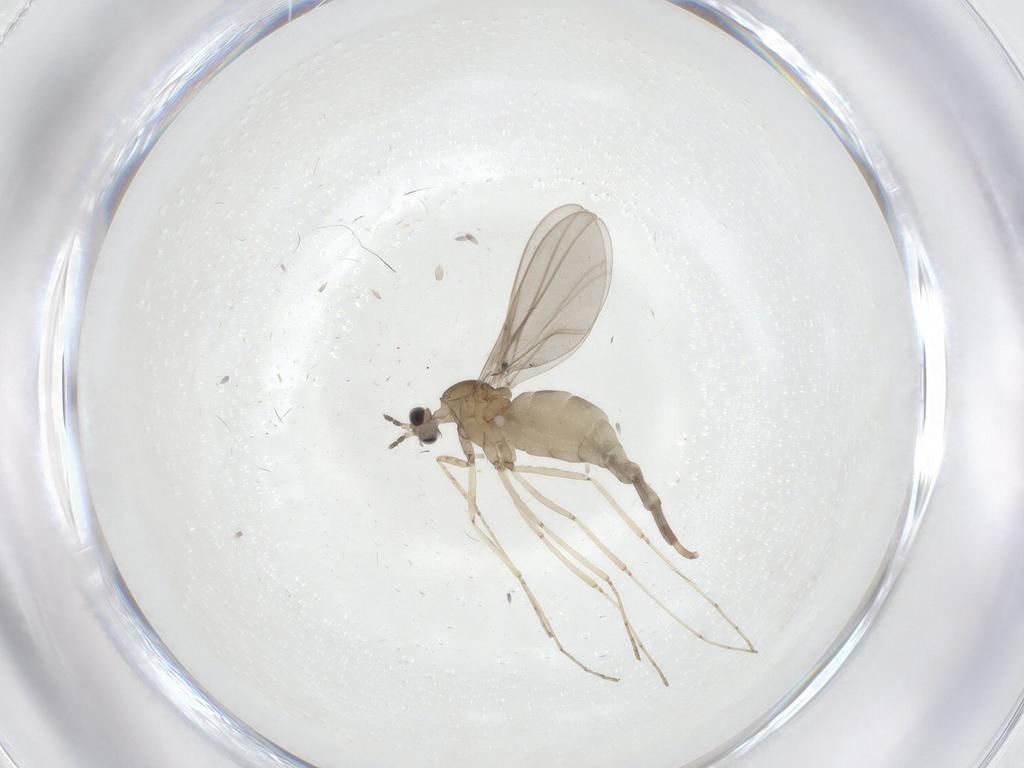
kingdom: Animalia
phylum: Arthropoda
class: Insecta
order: Diptera
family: Cecidomyiidae
